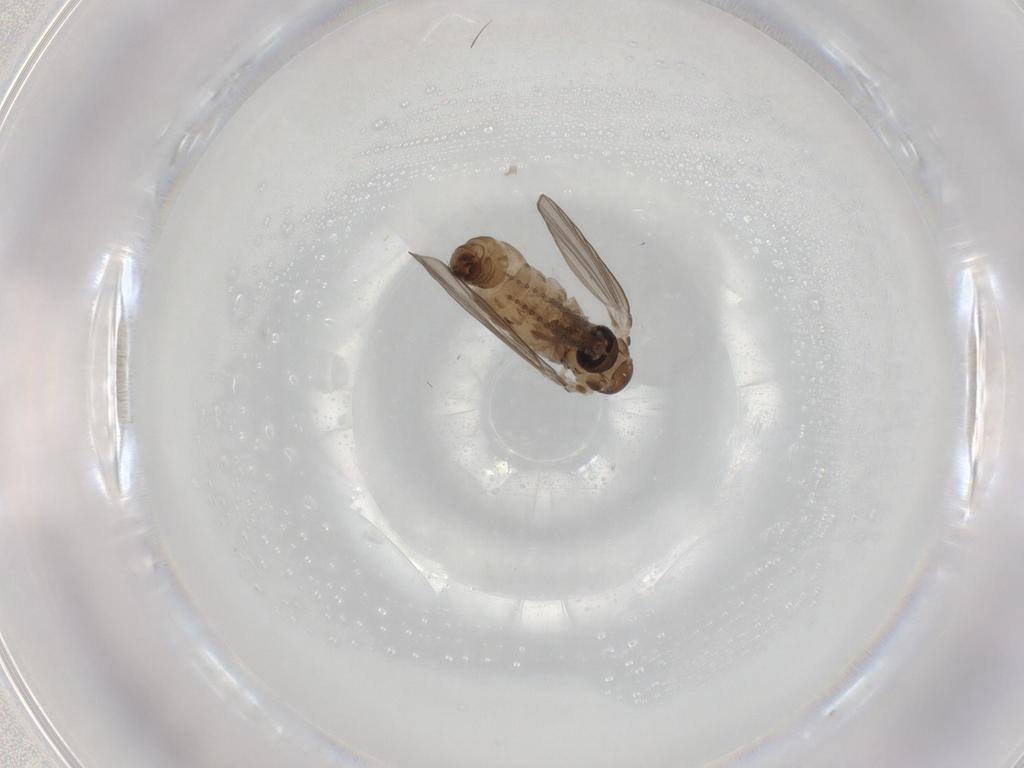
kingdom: Animalia
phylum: Arthropoda
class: Insecta
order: Diptera
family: Psychodidae
